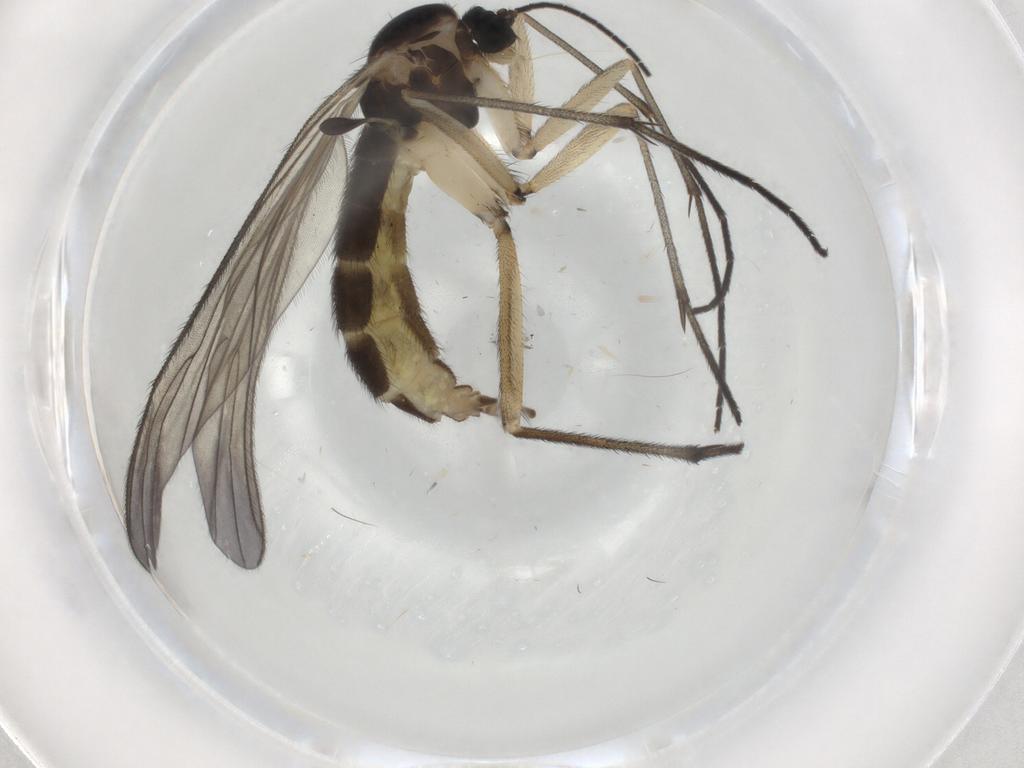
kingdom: Animalia
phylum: Arthropoda
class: Insecta
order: Diptera
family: Sciaridae
